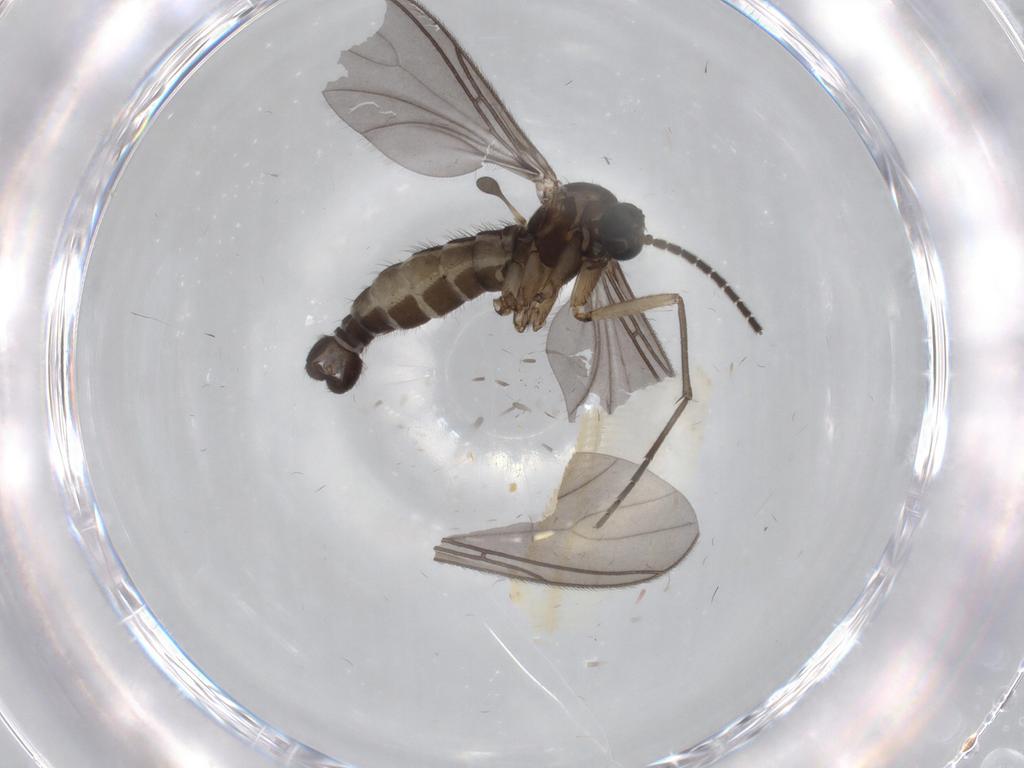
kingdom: Animalia
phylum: Arthropoda
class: Insecta
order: Diptera
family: Sciaridae
